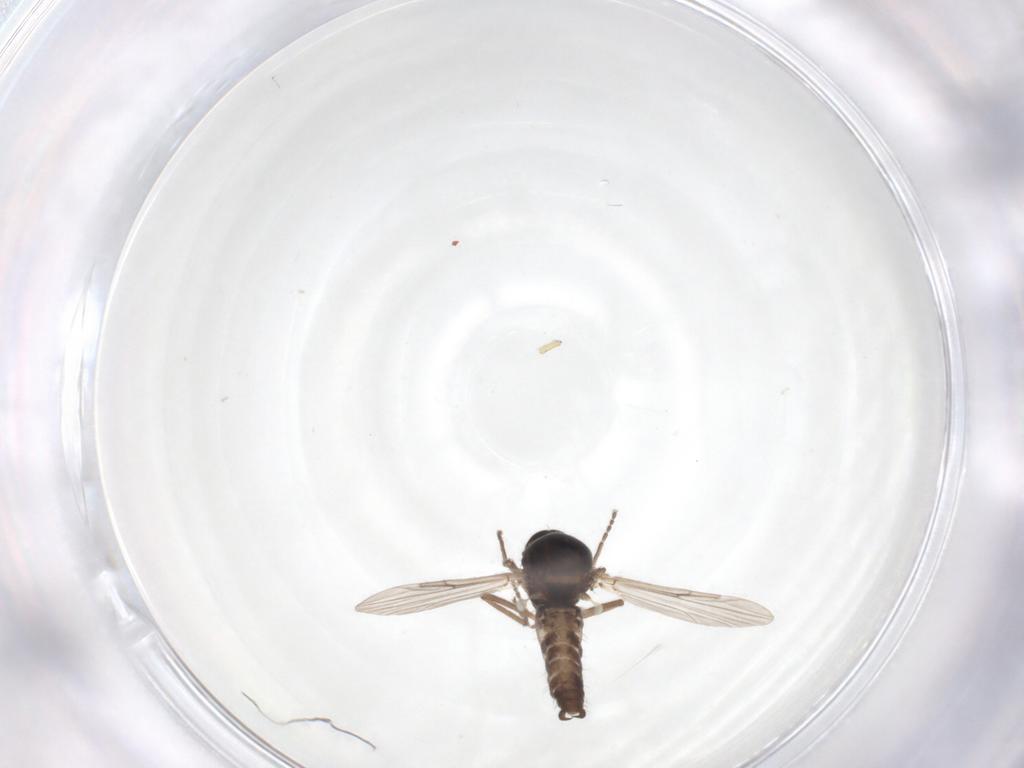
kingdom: Animalia
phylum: Arthropoda
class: Insecta
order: Diptera
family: Ceratopogonidae
